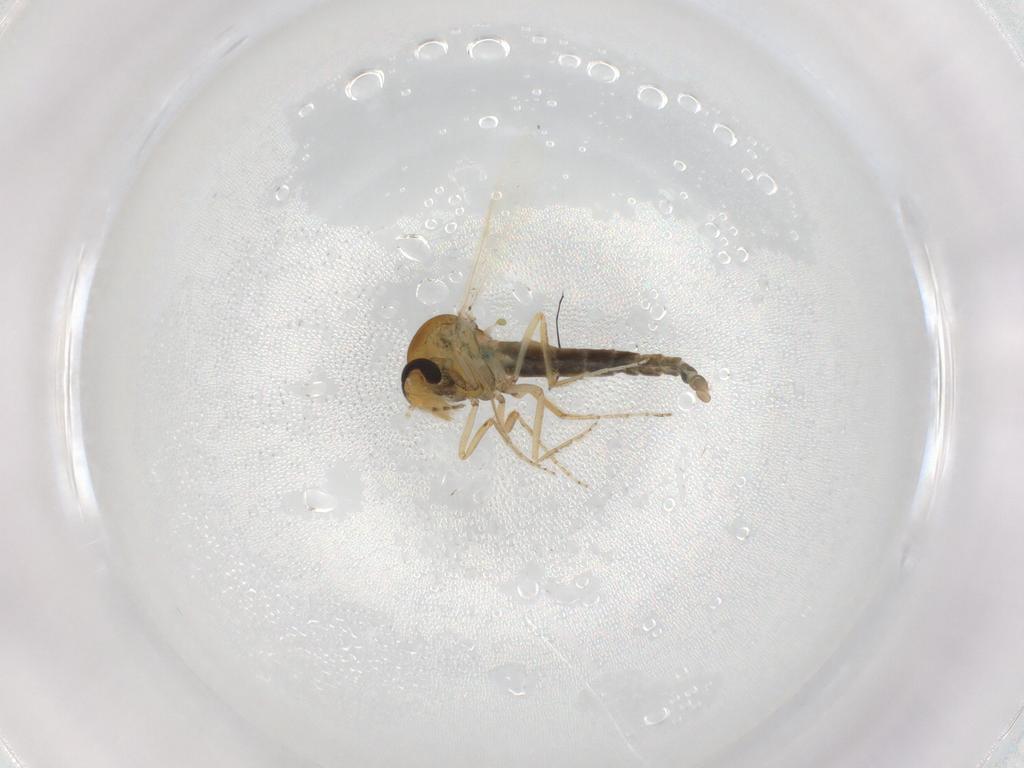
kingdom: Animalia
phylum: Arthropoda
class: Insecta
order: Diptera
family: Ceratopogonidae
